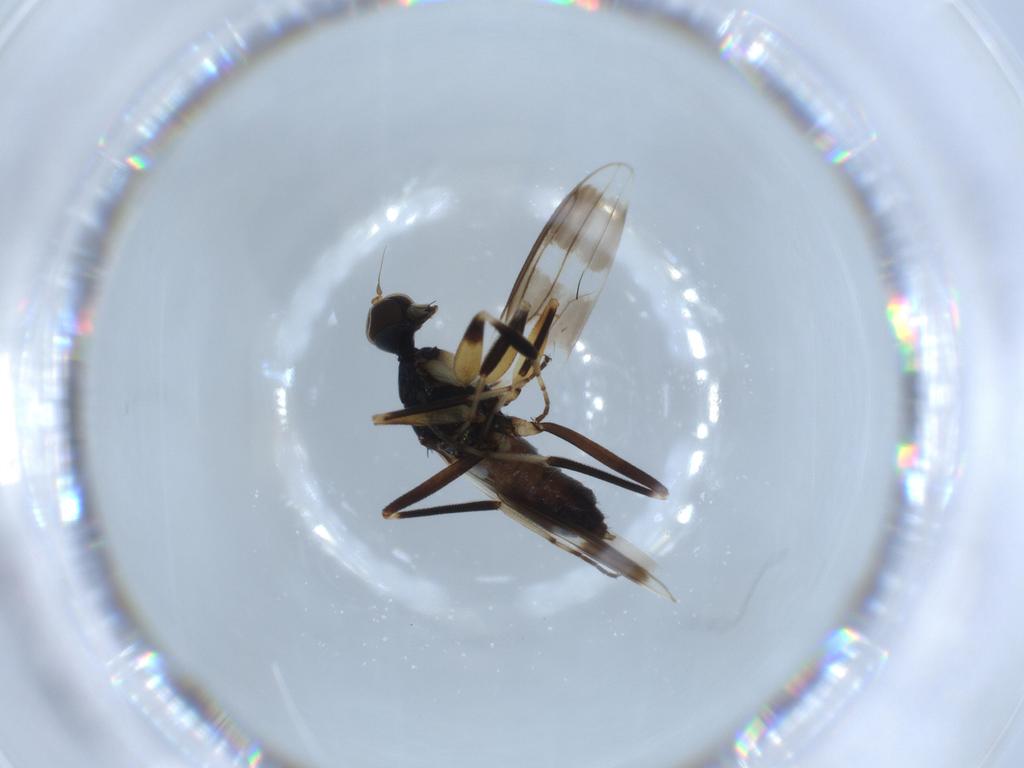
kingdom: Animalia
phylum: Arthropoda
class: Insecta
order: Diptera
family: Hybotidae
